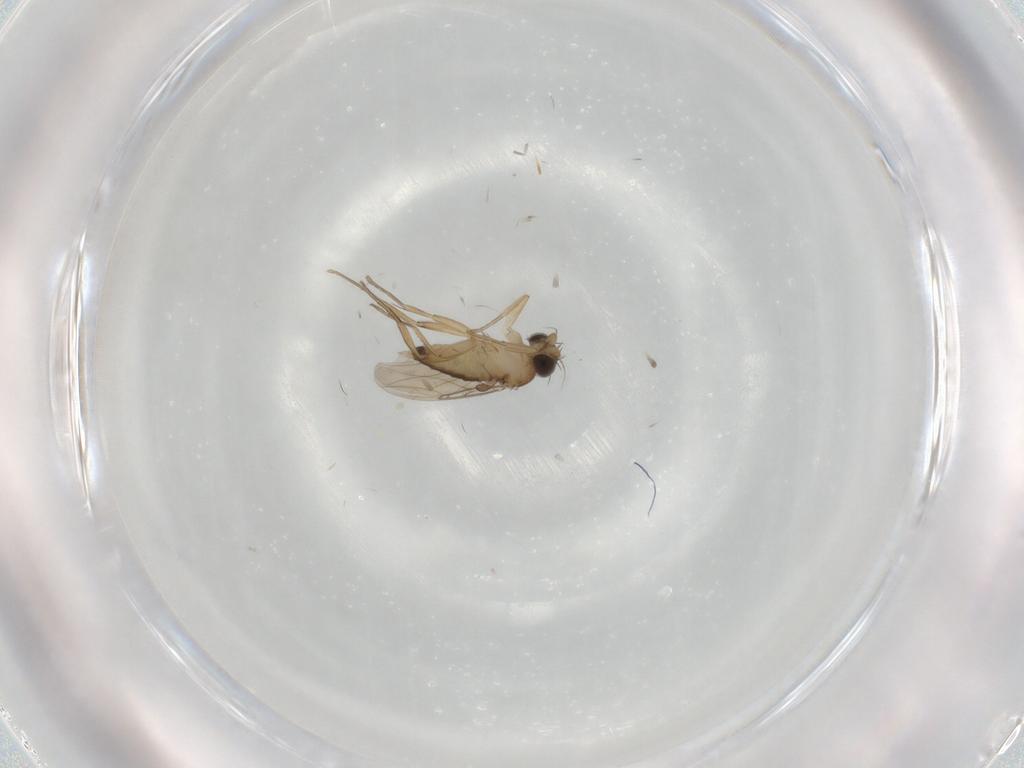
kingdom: Animalia
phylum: Arthropoda
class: Insecta
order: Diptera
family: Phoridae
